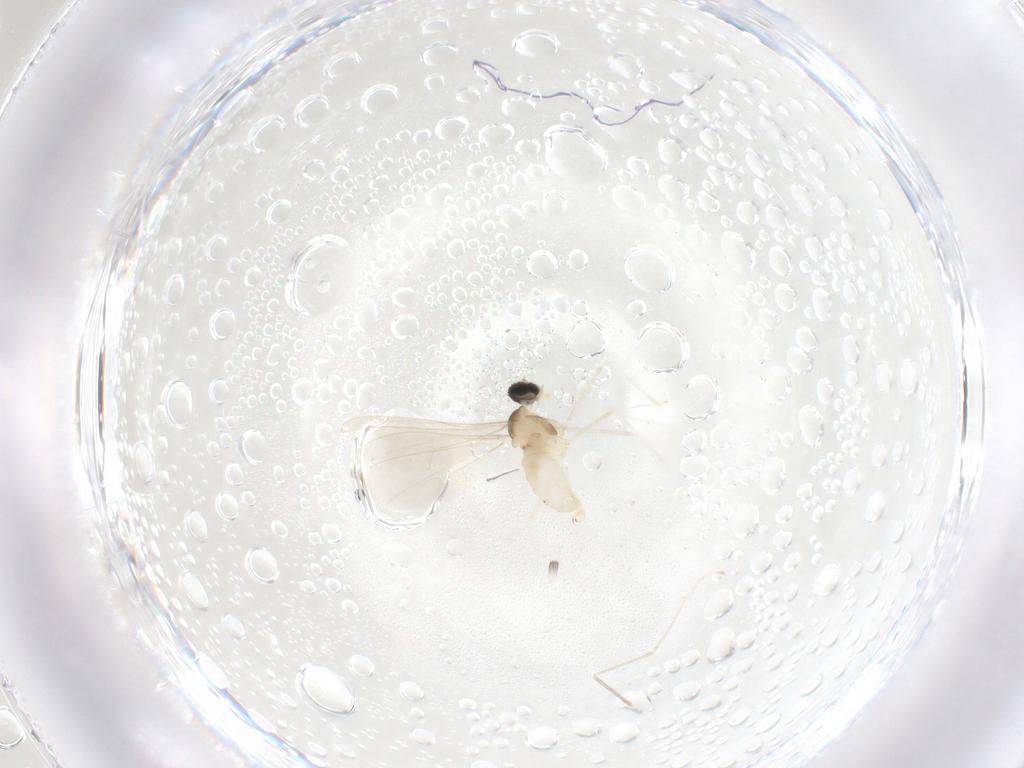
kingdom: Animalia
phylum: Arthropoda
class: Insecta
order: Diptera
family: Cecidomyiidae
